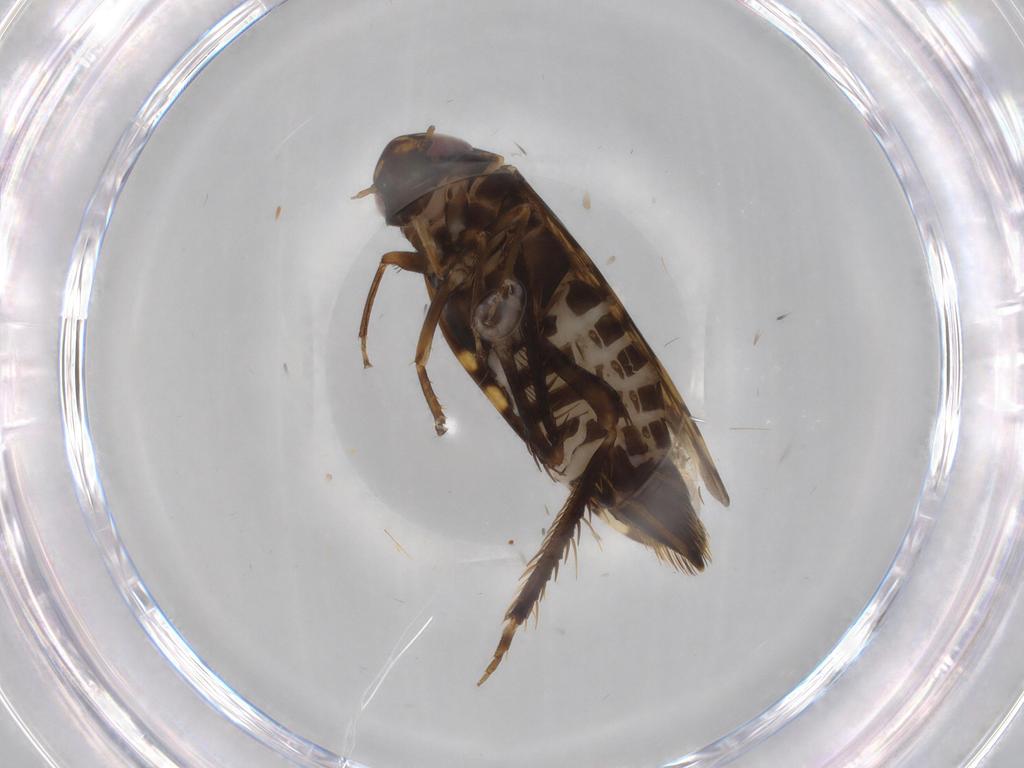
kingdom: Animalia
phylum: Arthropoda
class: Insecta
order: Hemiptera
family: Cicadellidae
